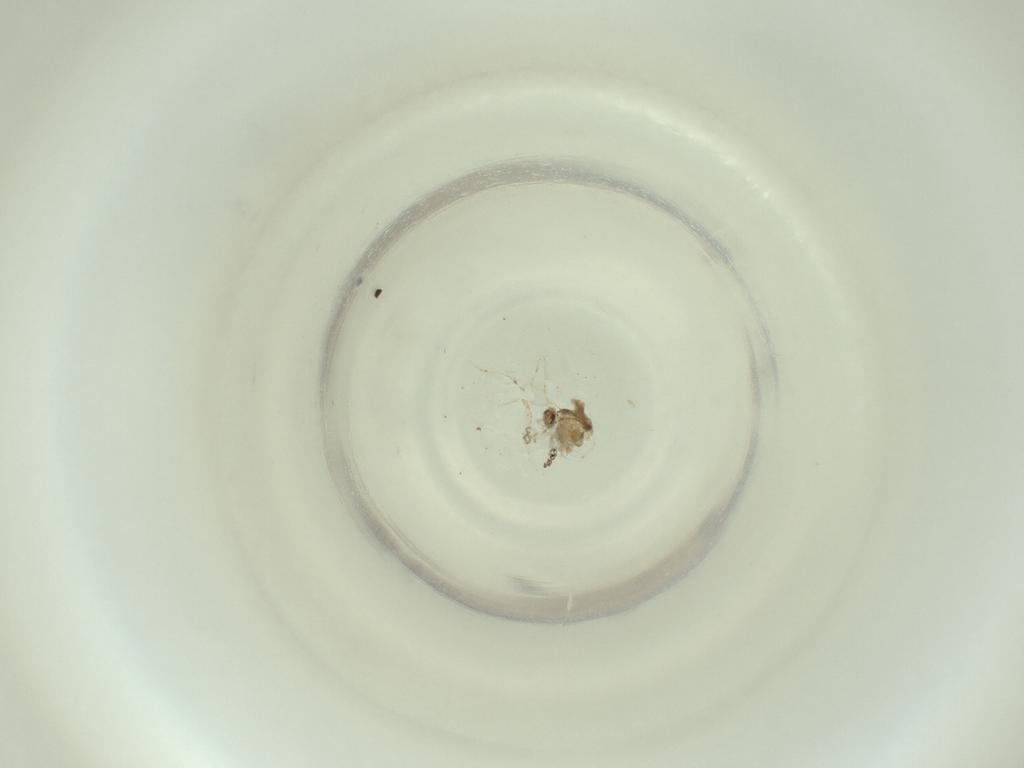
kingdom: Animalia
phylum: Arthropoda
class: Insecta
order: Diptera
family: Cecidomyiidae
